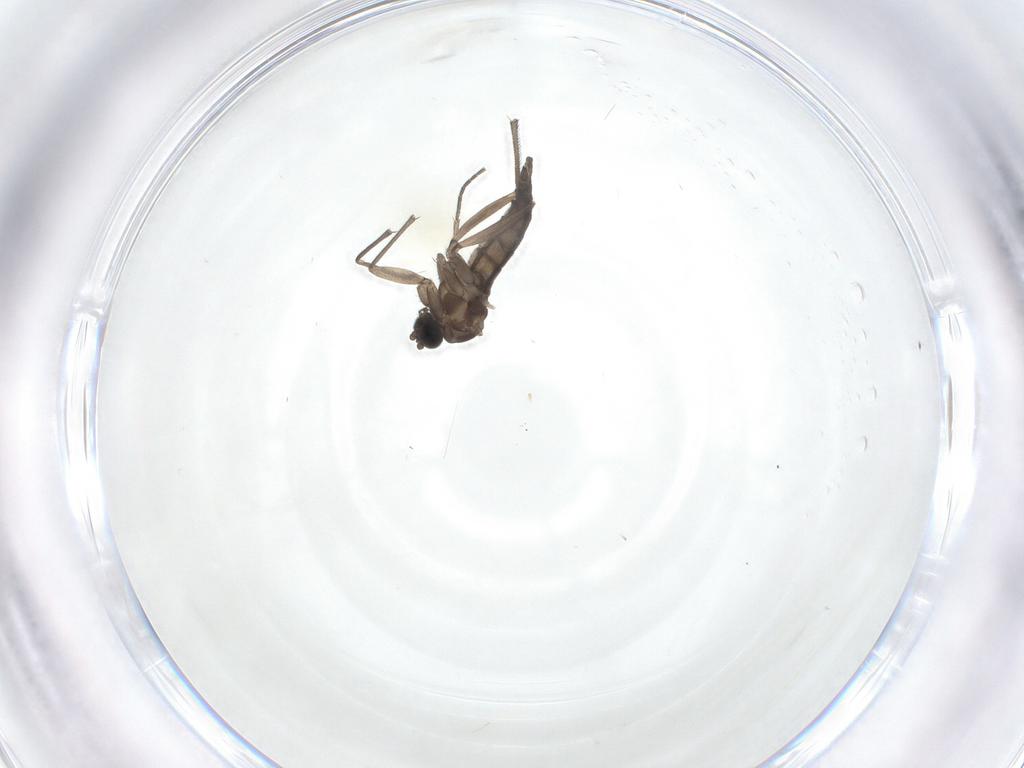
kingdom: Animalia
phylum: Arthropoda
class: Insecta
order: Diptera
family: Sciaridae
